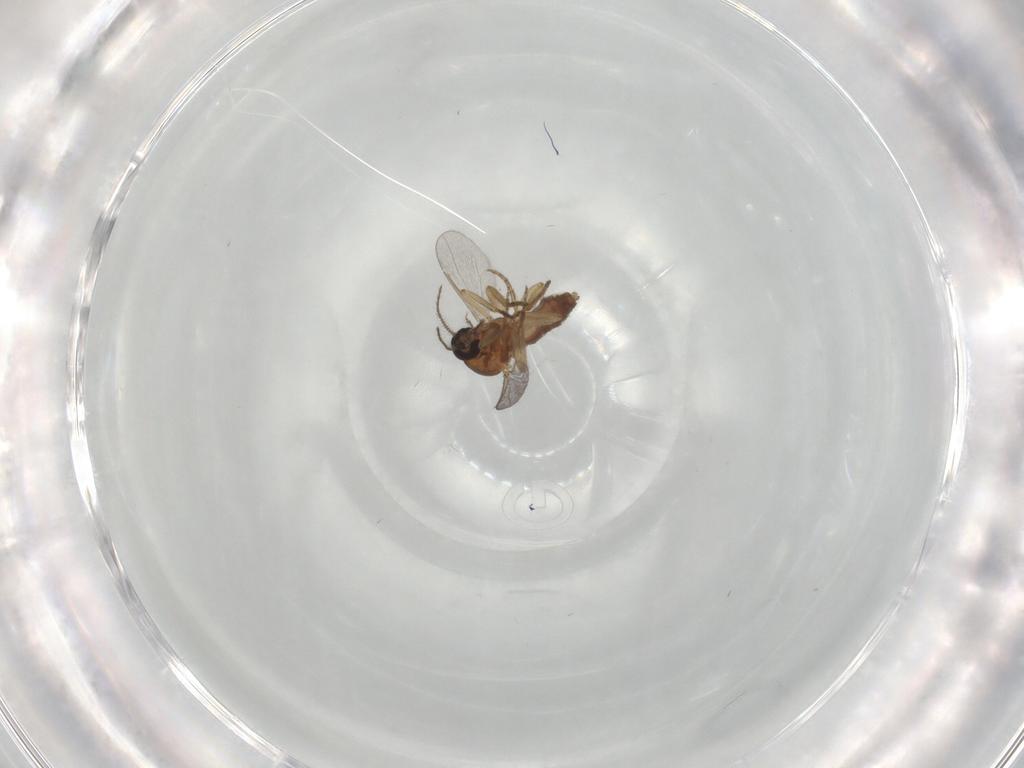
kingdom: Animalia
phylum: Arthropoda
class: Insecta
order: Diptera
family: Ceratopogonidae
